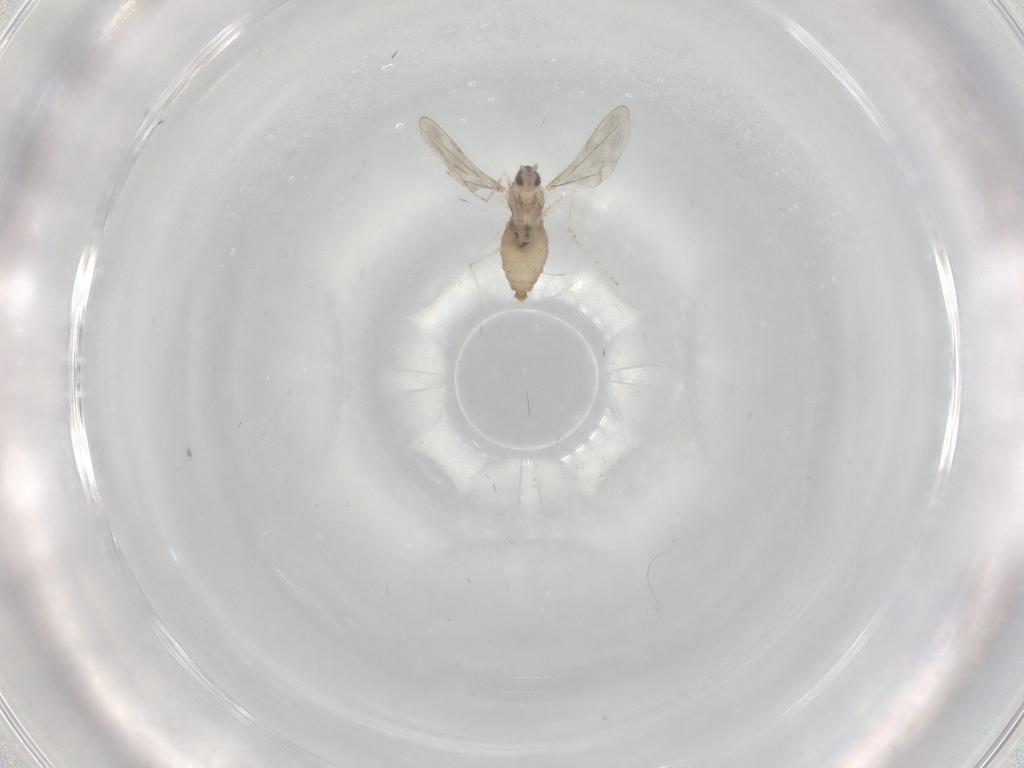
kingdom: Animalia
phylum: Arthropoda
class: Insecta
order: Diptera
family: Cecidomyiidae
